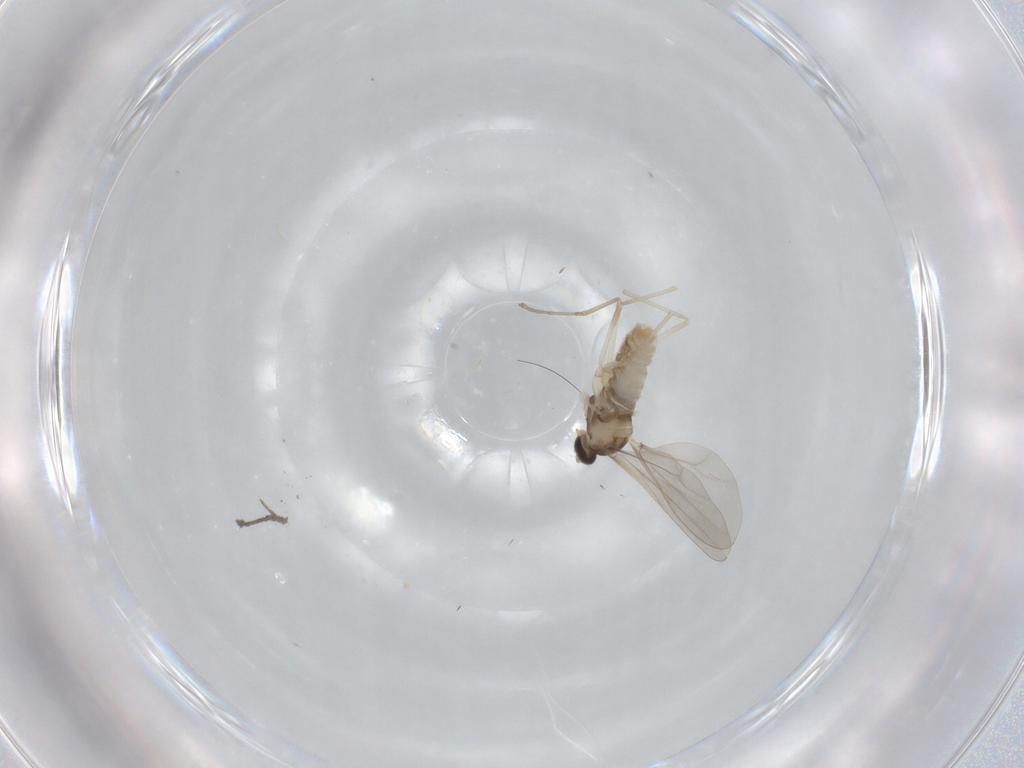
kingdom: Animalia
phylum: Arthropoda
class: Insecta
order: Diptera
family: Cecidomyiidae
